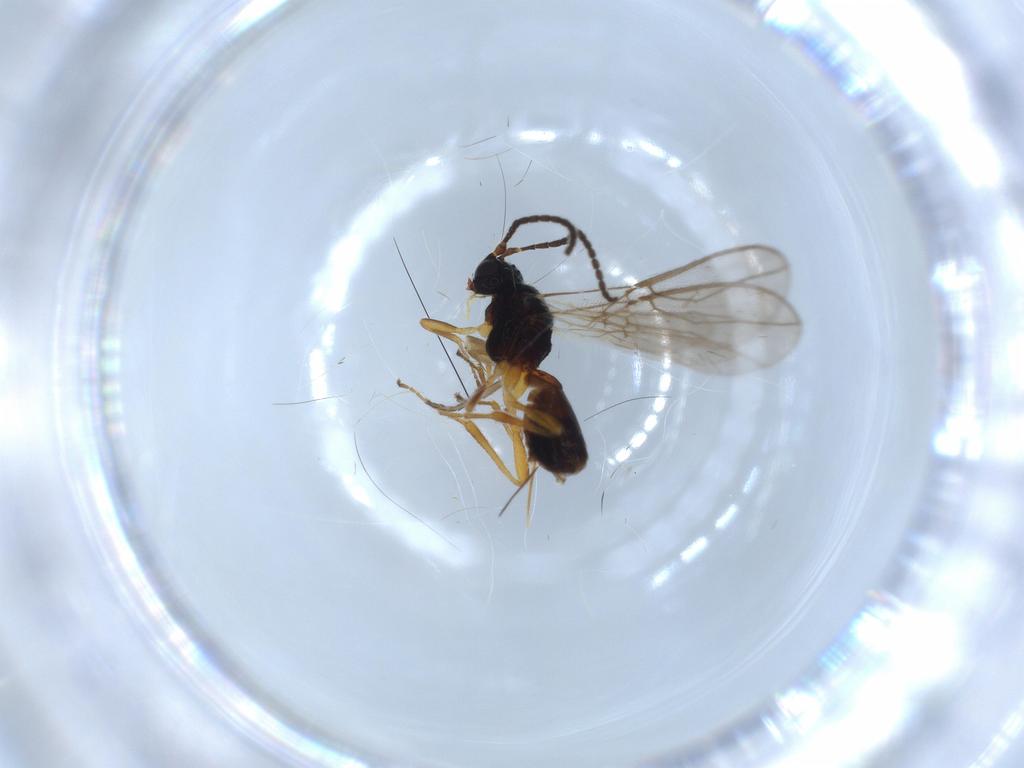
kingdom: Animalia
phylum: Arthropoda
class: Insecta
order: Hymenoptera
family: Braconidae
